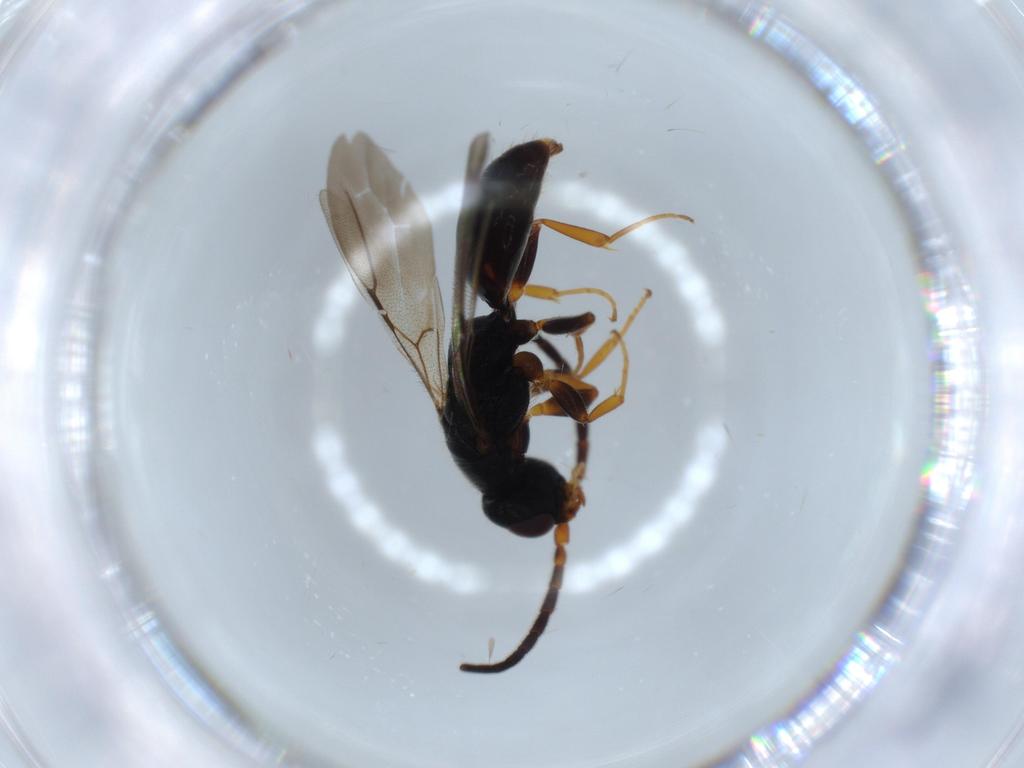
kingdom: Animalia
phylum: Arthropoda
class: Insecta
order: Hymenoptera
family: Bethylidae
